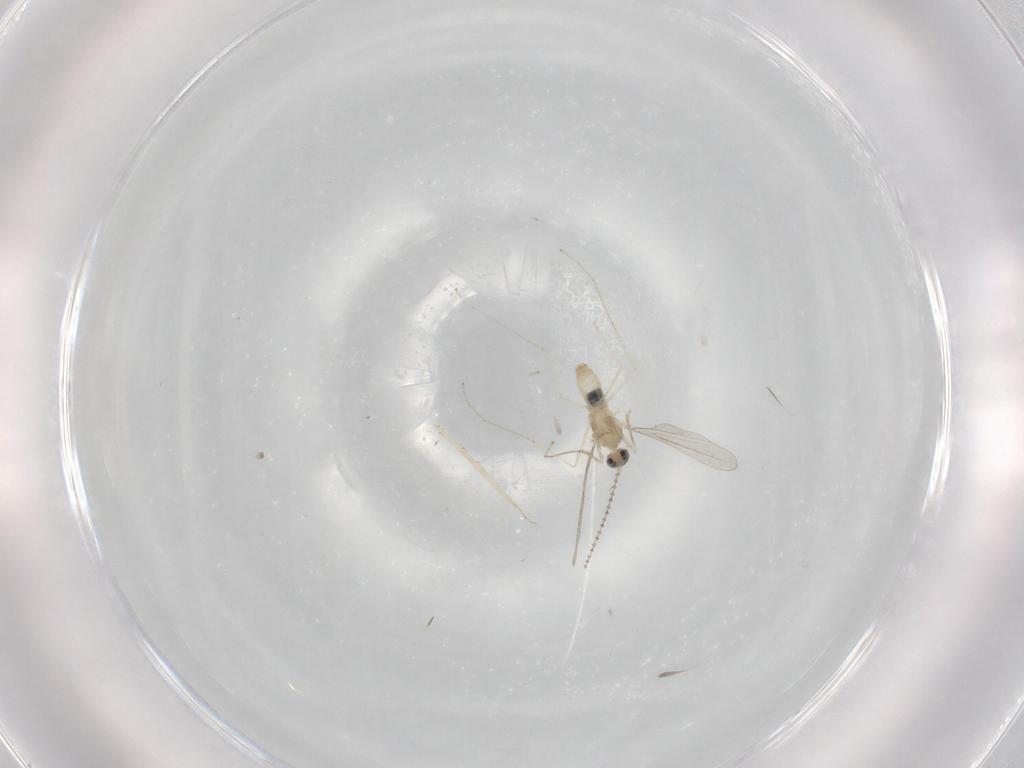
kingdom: Animalia
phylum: Arthropoda
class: Insecta
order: Diptera
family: Cecidomyiidae
